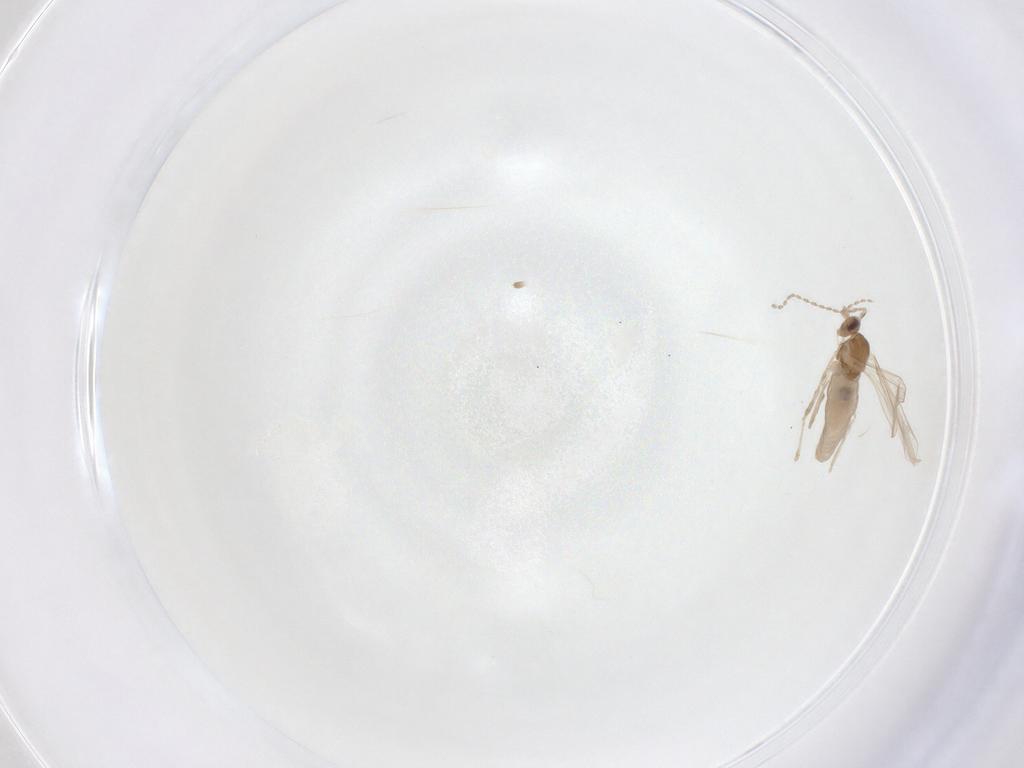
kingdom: Animalia
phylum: Arthropoda
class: Insecta
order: Diptera
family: Cecidomyiidae
